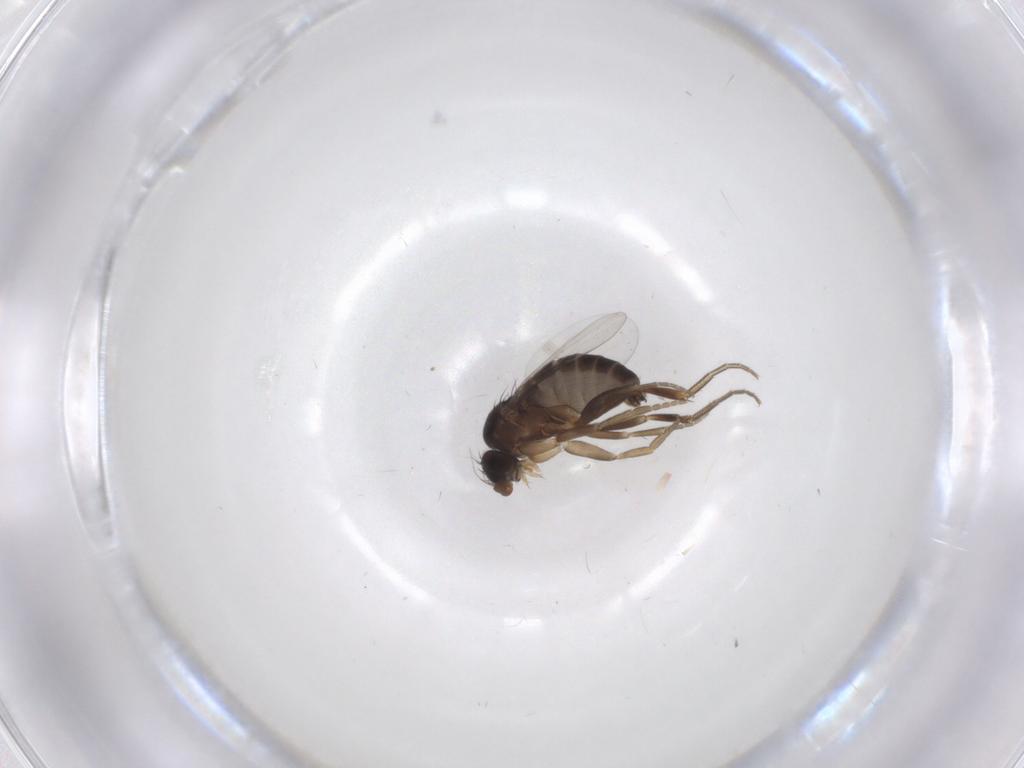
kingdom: Animalia
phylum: Arthropoda
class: Insecta
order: Diptera
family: Phoridae
